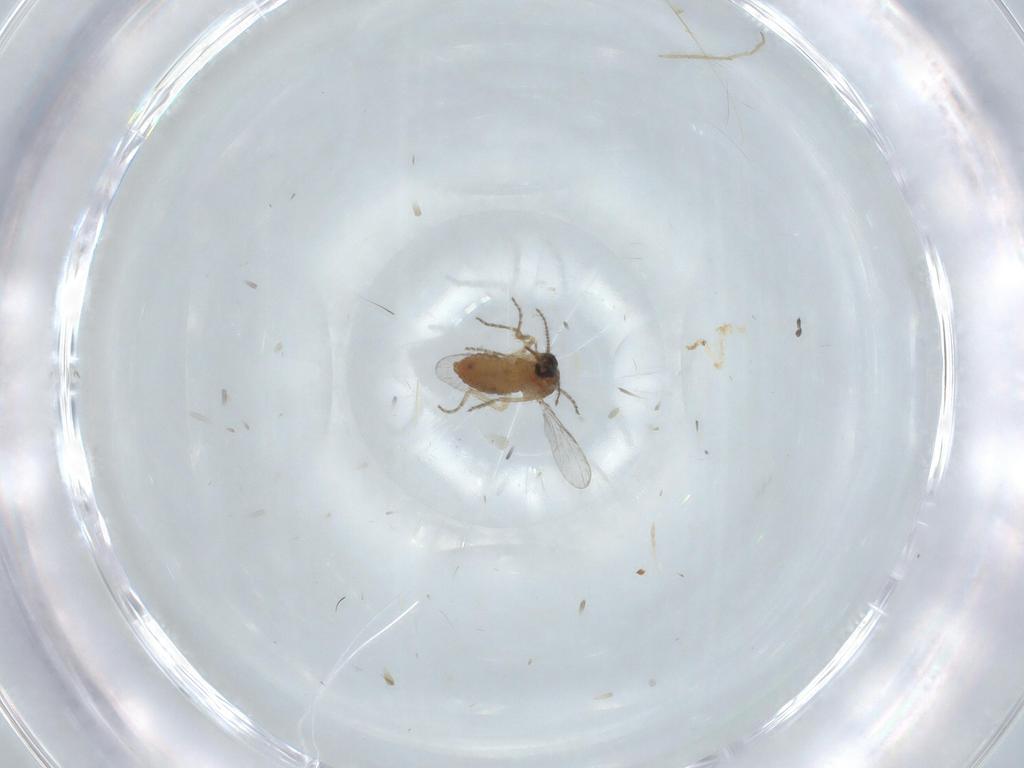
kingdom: Animalia
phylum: Arthropoda
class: Insecta
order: Diptera
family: Ceratopogonidae
